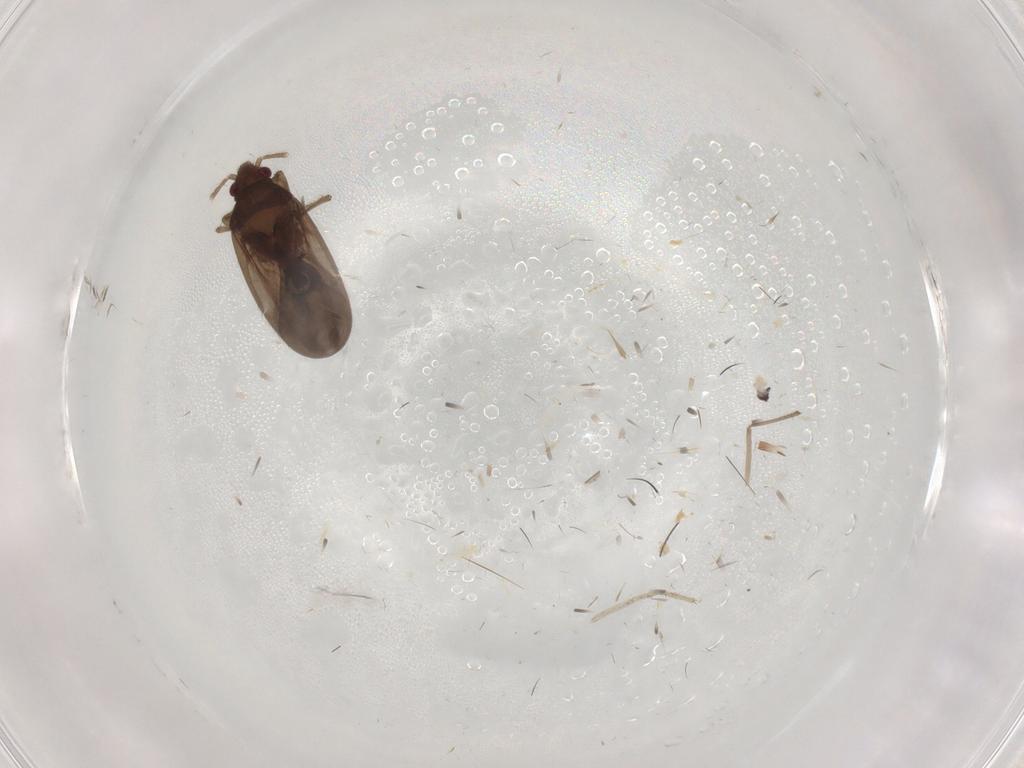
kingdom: Animalia
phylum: Arthropoda
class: Insecta
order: Hemiptera
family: Ceratocombidae
